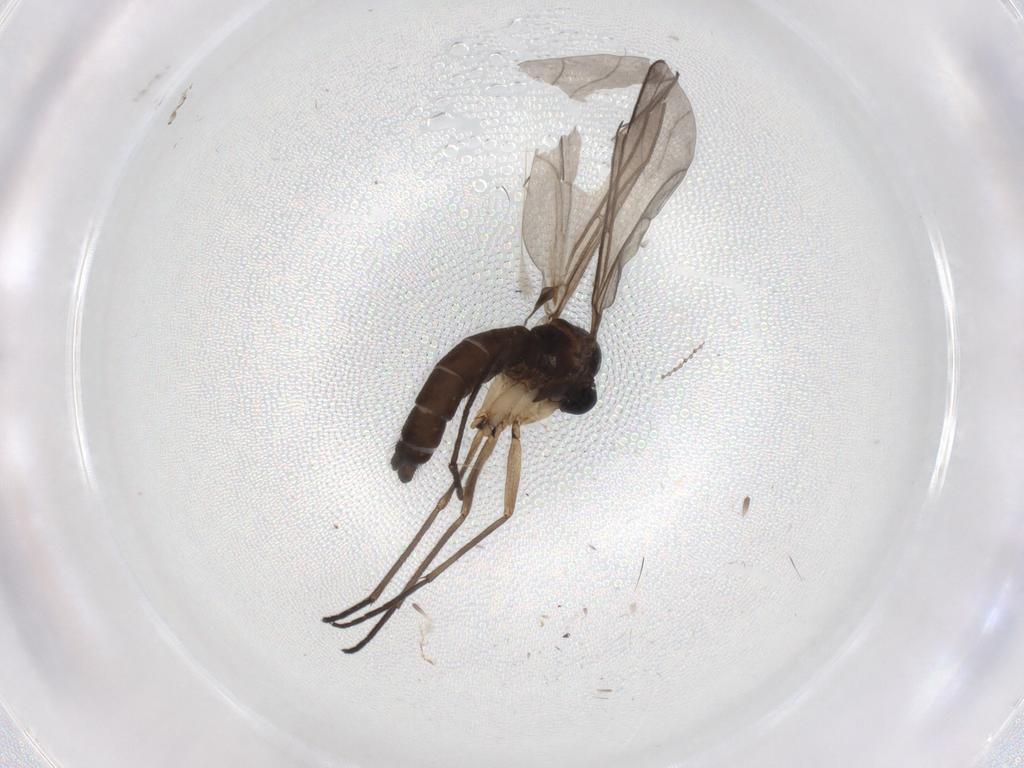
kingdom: Animalia
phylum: Arthropoda
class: Insecta
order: Diptera
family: Sciaridae
